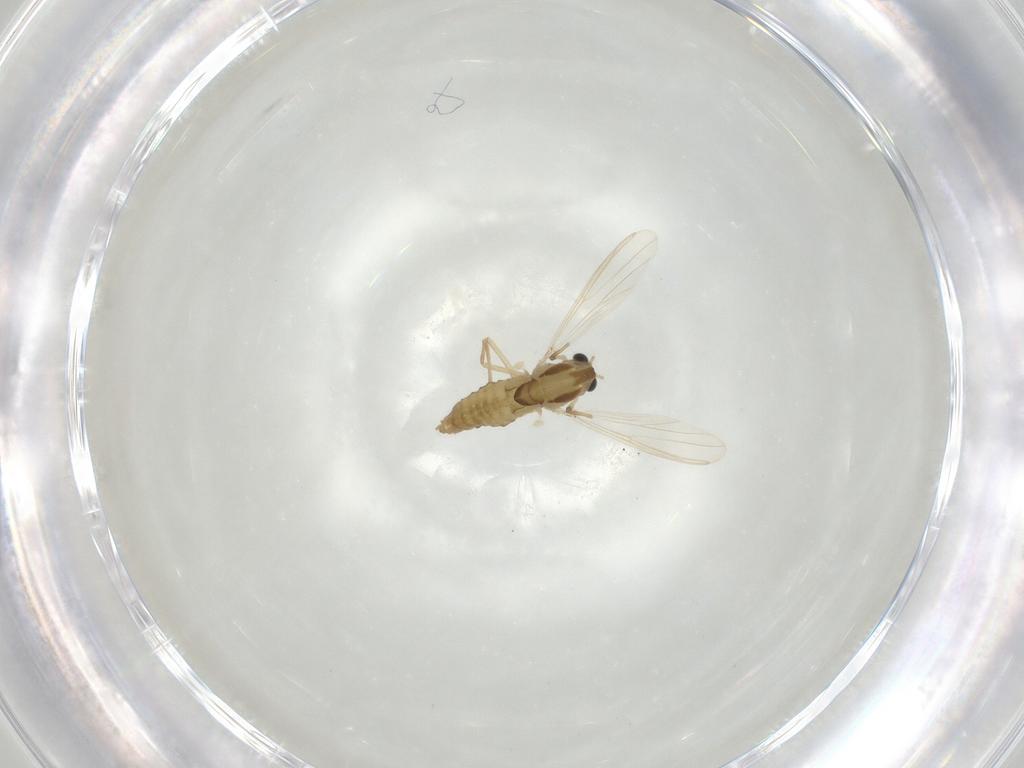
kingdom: Animalia
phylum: Arthropoda
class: Insecta
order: Diptera
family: Chironomidae
